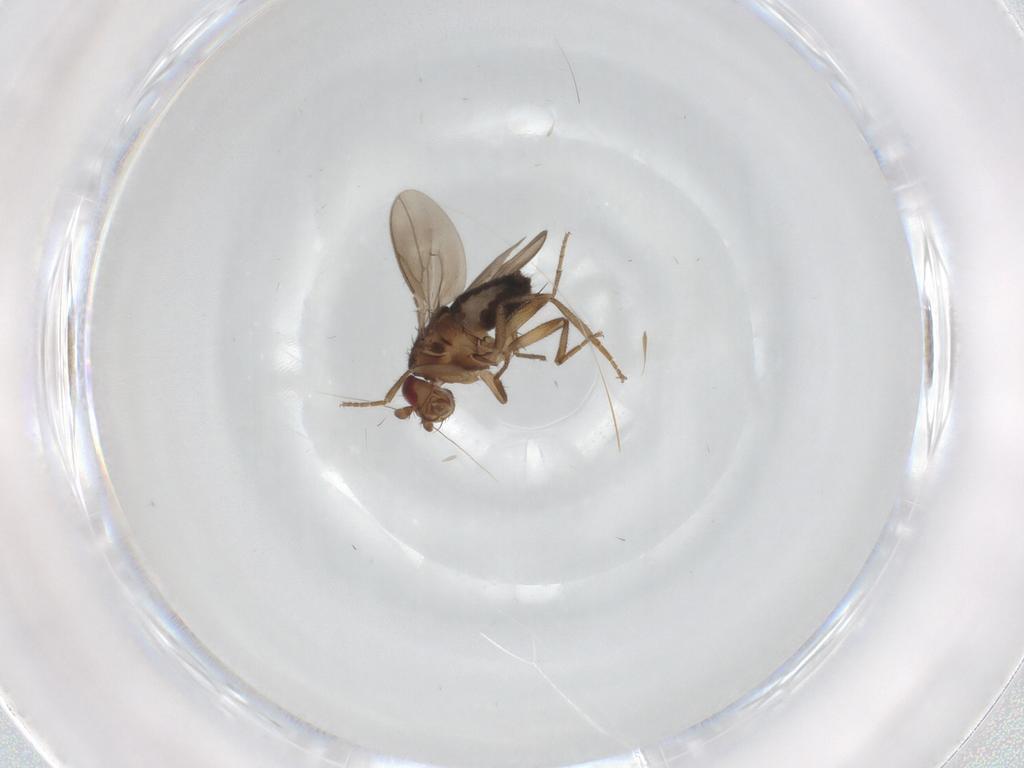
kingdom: Animalia
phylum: Arthropoda
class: Insecta
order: Diptera
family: Sphaeroceridae
